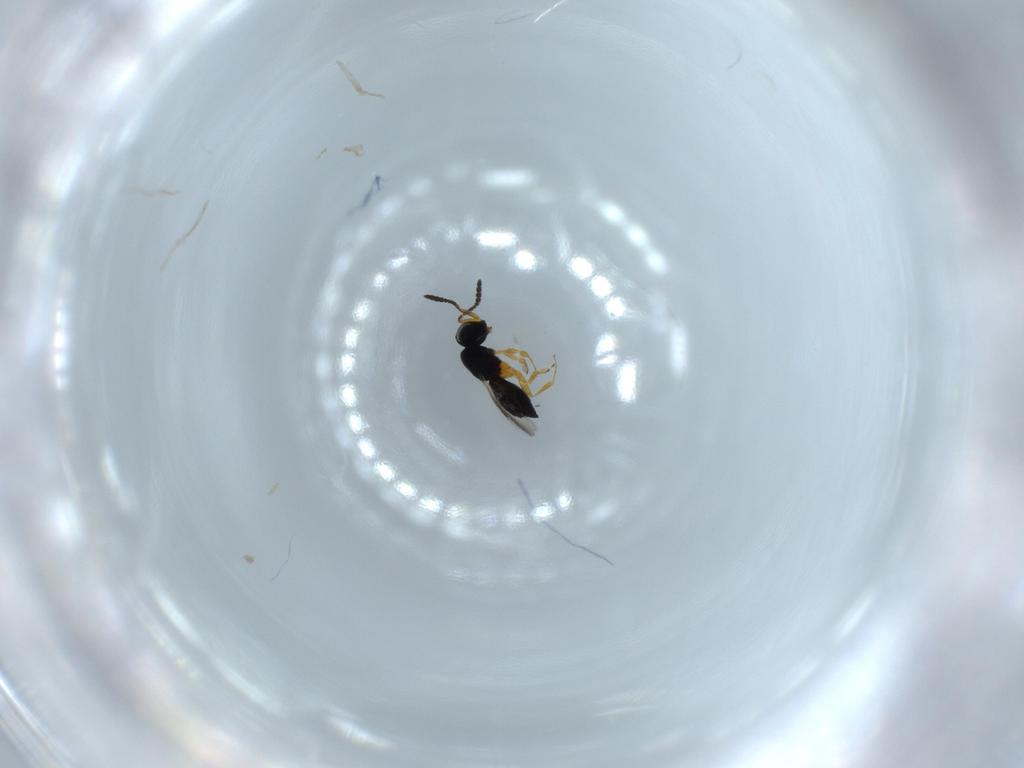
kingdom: Animalia
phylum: Arthropoda
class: Insecta
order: Hymenoptera
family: Scelionidae
